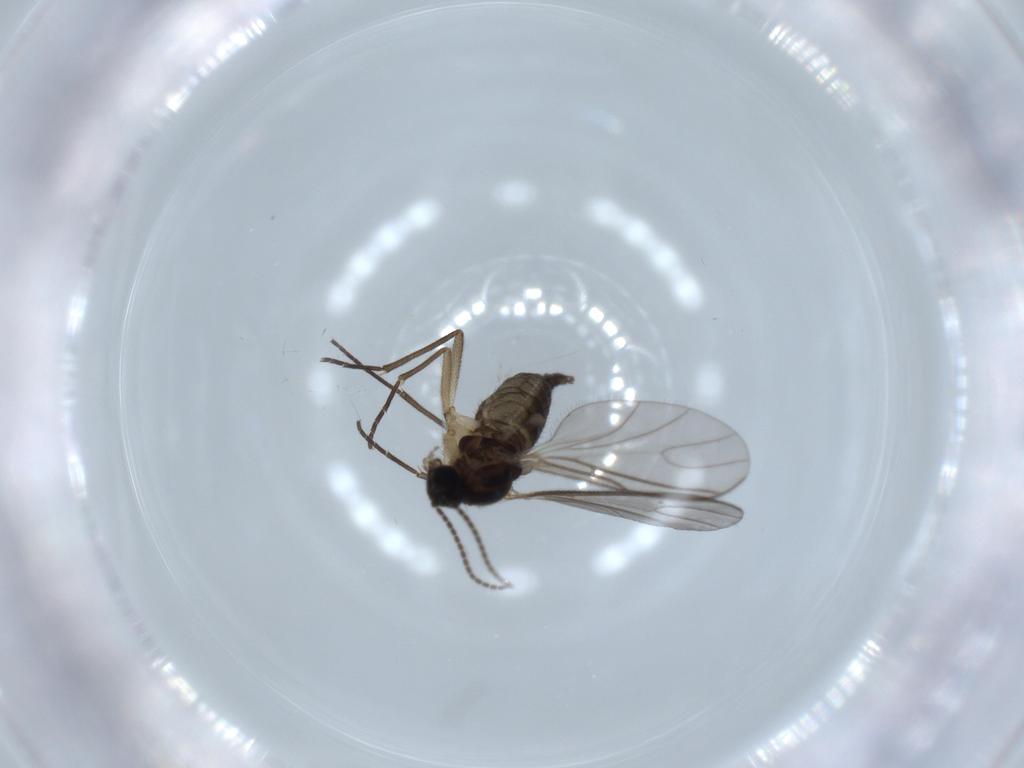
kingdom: Animalia
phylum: Arthropoda
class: Insecta
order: Diptera
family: Sciaridae
